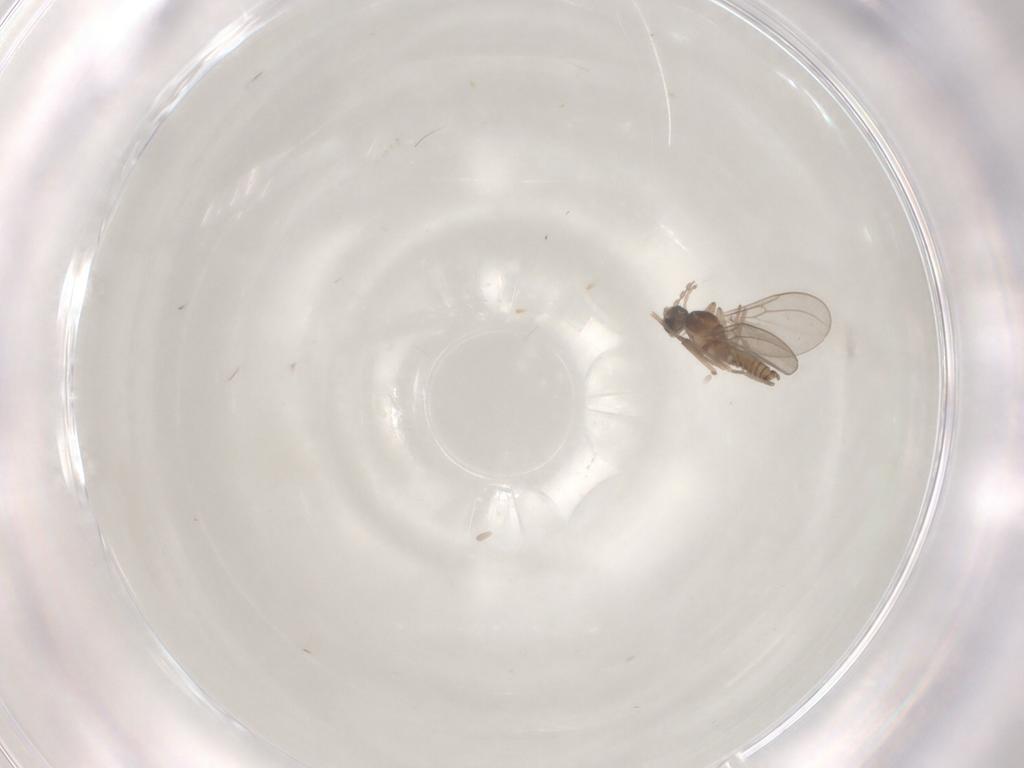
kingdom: Animalia
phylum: Arthropoda
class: Insecta
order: Diptera
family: Cecidomyiidae
